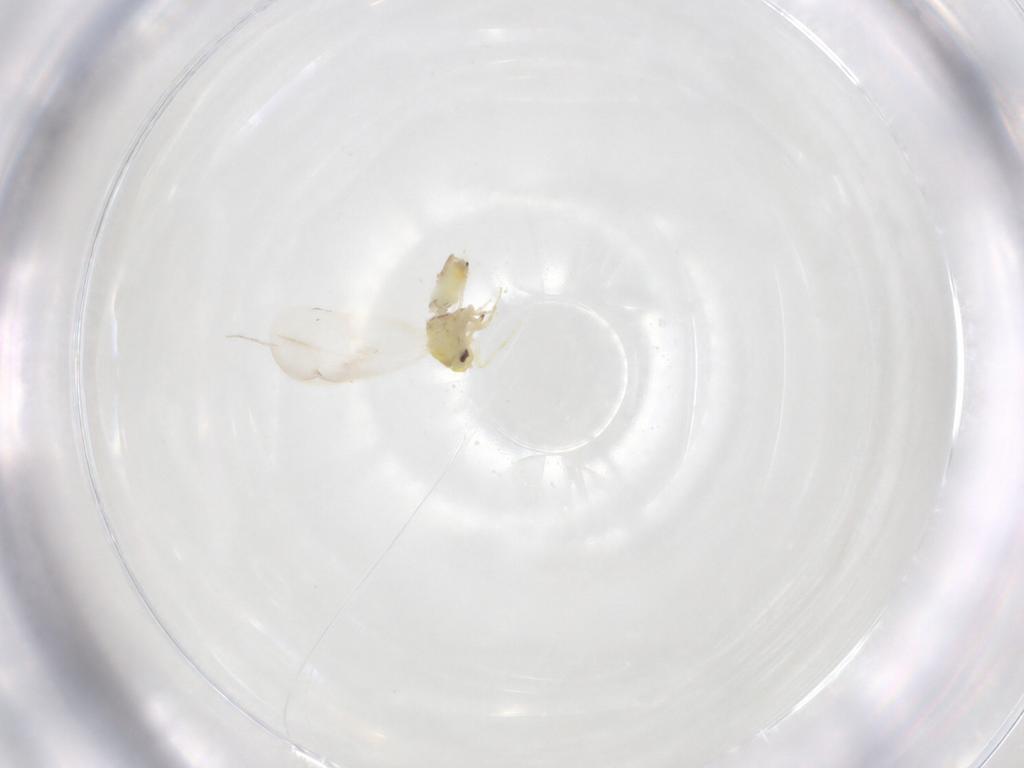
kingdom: Animalia
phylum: Arthropoda
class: Insecta
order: Hemiptera
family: Aleyrodidae
